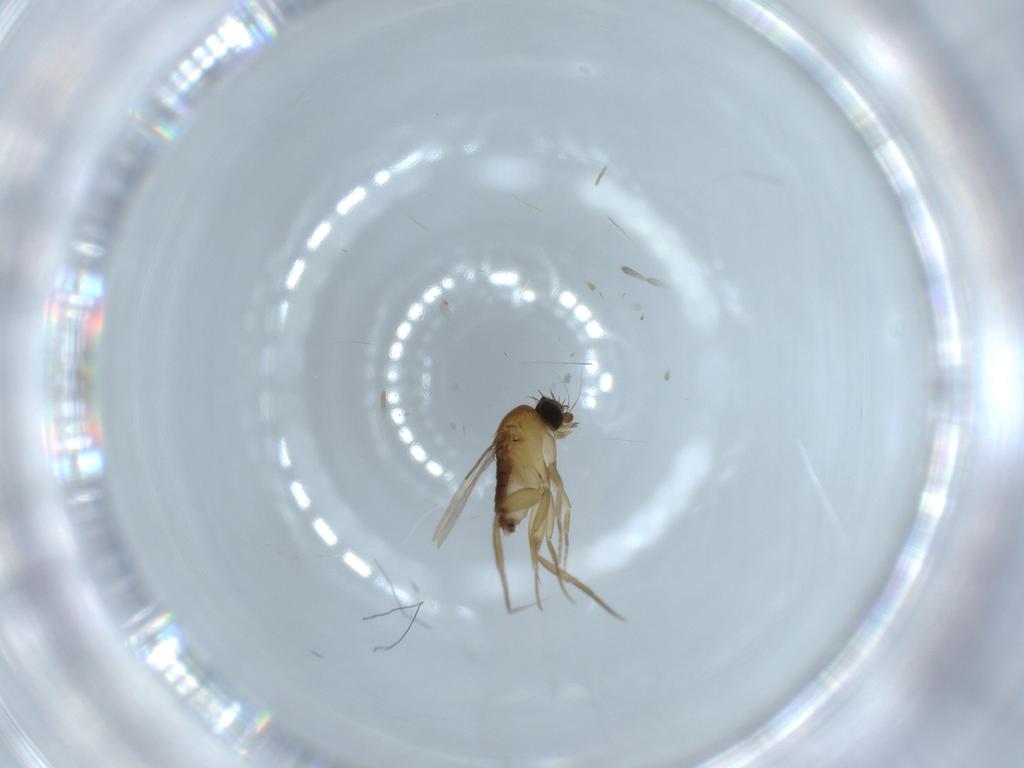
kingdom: Animalia
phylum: Arthropoda
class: Insecta
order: Diptera
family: Phoridae
